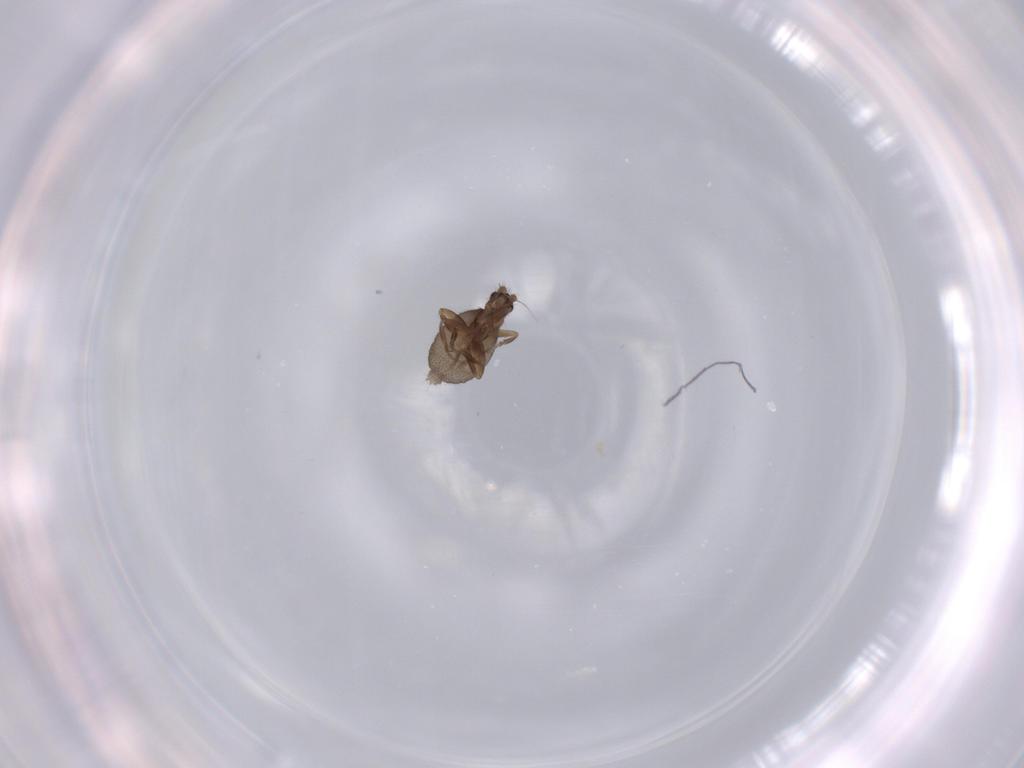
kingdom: Animalia
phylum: Arthropoda
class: Insecta
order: Diptera
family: Phoridae
